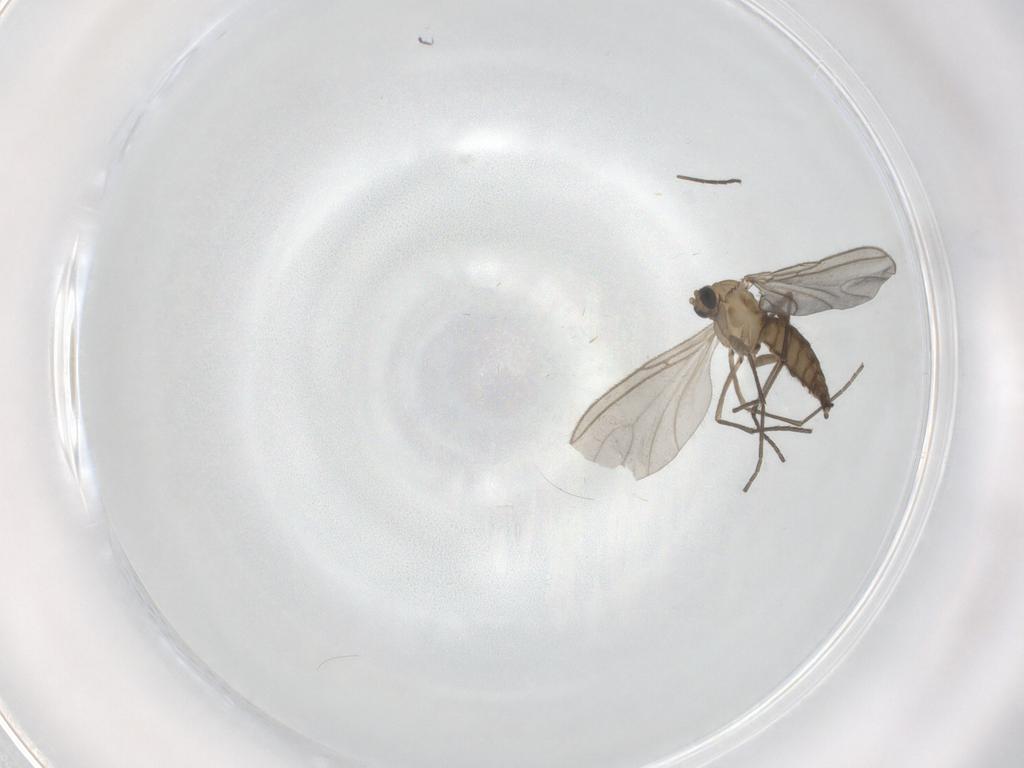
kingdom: Animalia
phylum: Arthropoda
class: Insecta
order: Diptera
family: Sciaridae
